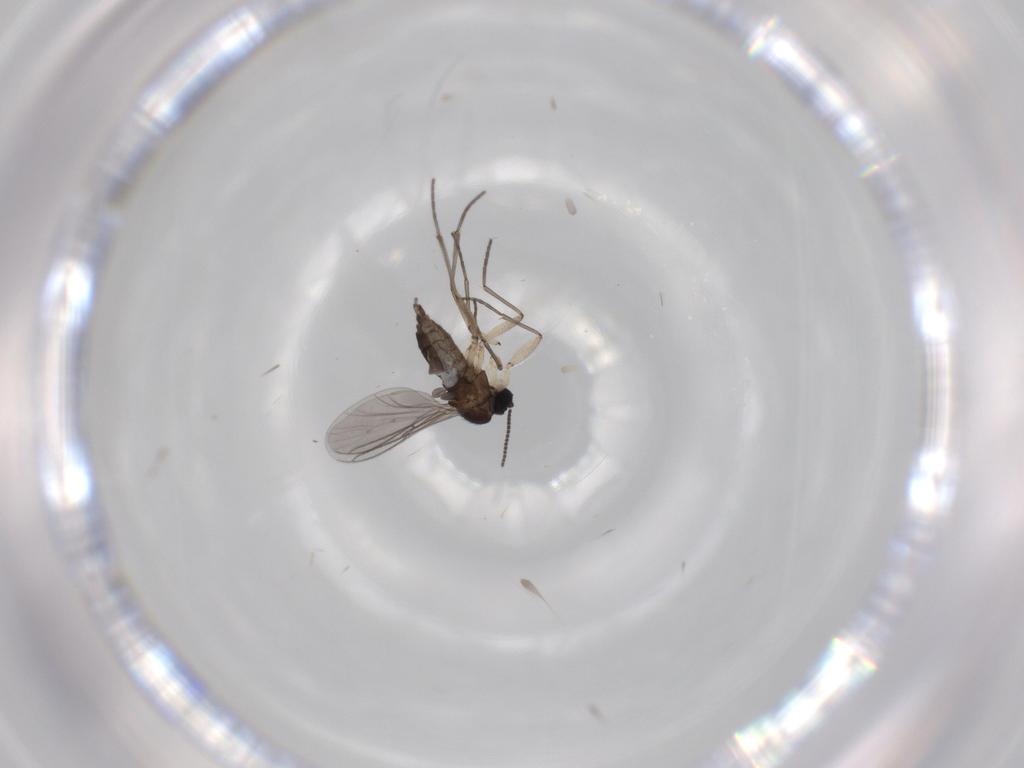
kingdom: Animalia
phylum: Arthropoda
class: Insecta
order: Diptera
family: Sciaridae
